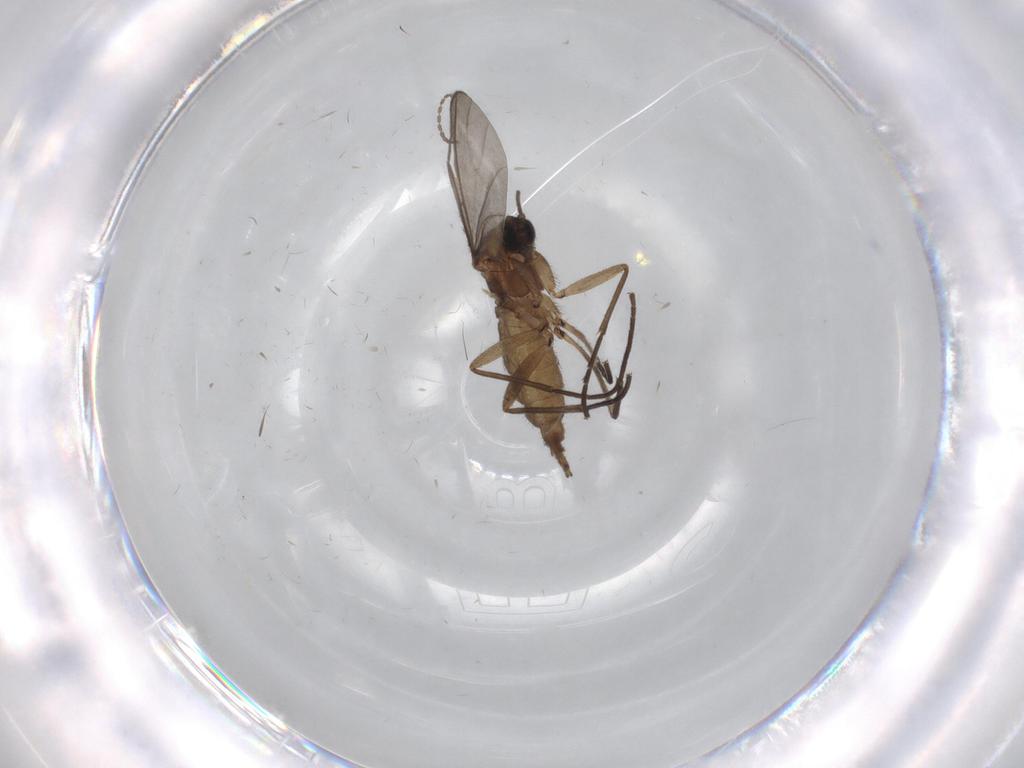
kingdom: Animalia
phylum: Arthropoda
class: Insecta
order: Diptera
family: Sciaridae
